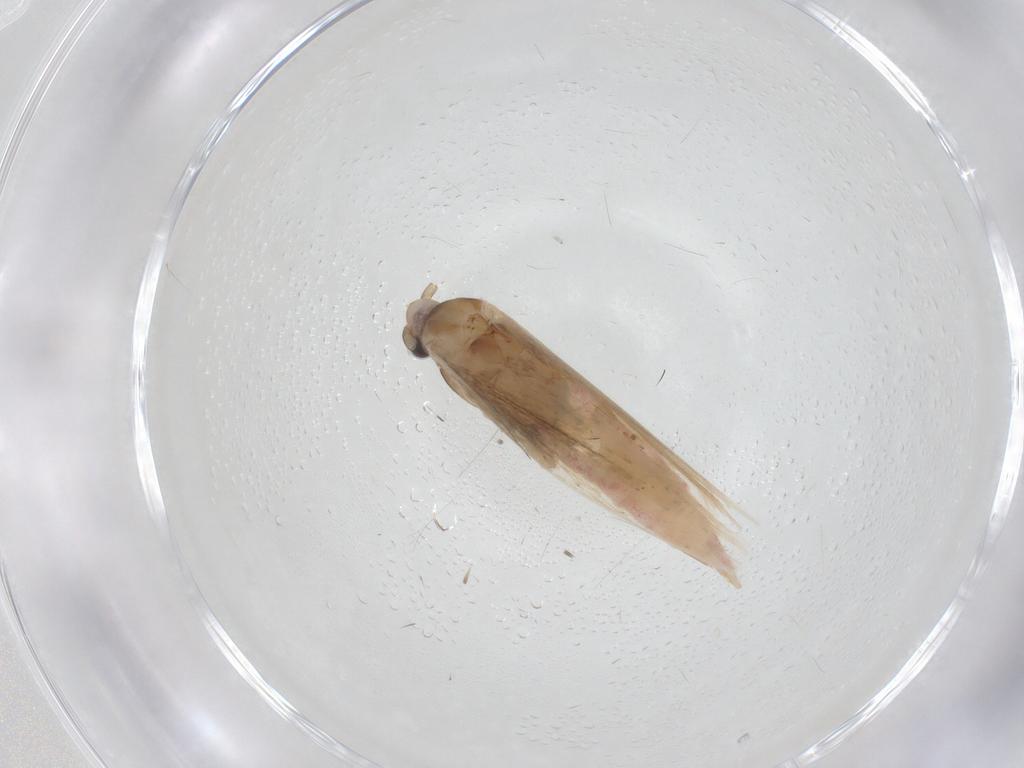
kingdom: Animalia
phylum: Arthropoda
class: Insecta
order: Lepidoptera
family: Bedelliidae
